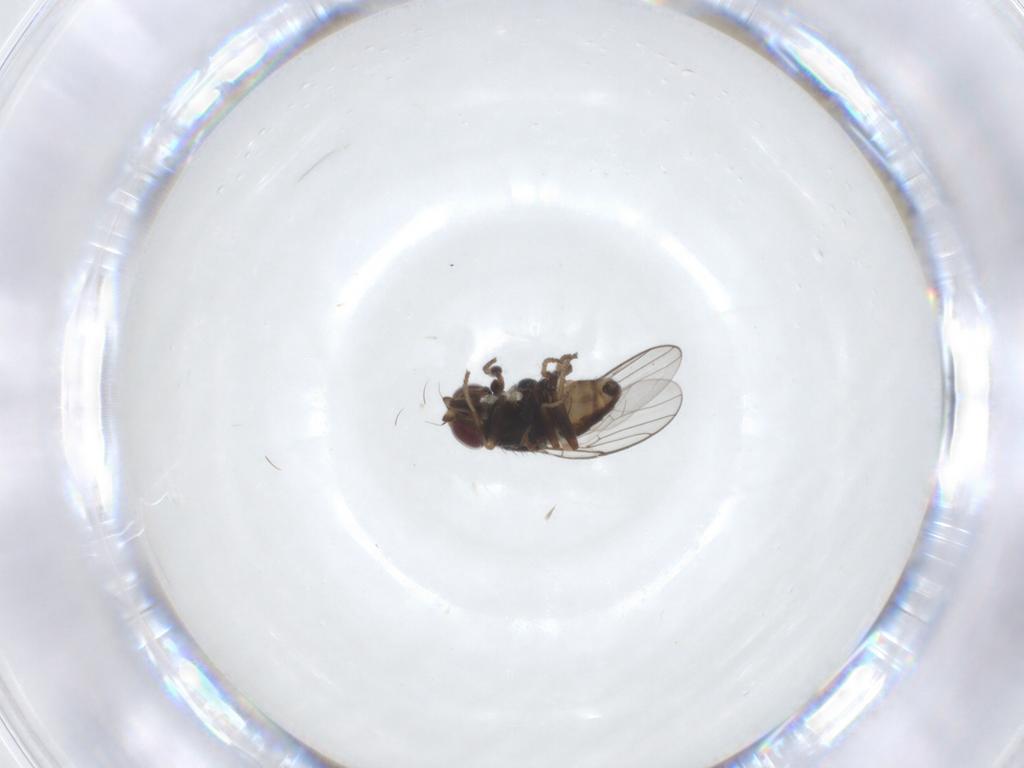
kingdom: Animalia
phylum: Arthropoda
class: Insecta
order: Diptera
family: Chloropidae
